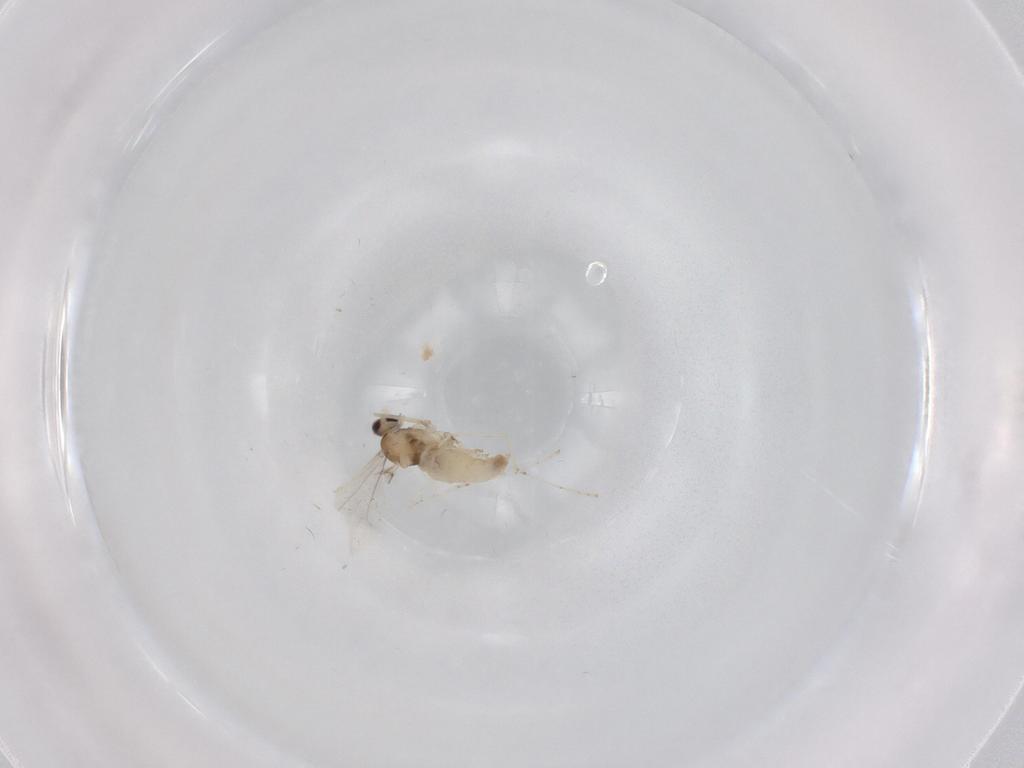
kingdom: Animalia
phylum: Arthropoda
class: Insecta
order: Diptera
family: Cecidomyiidae
